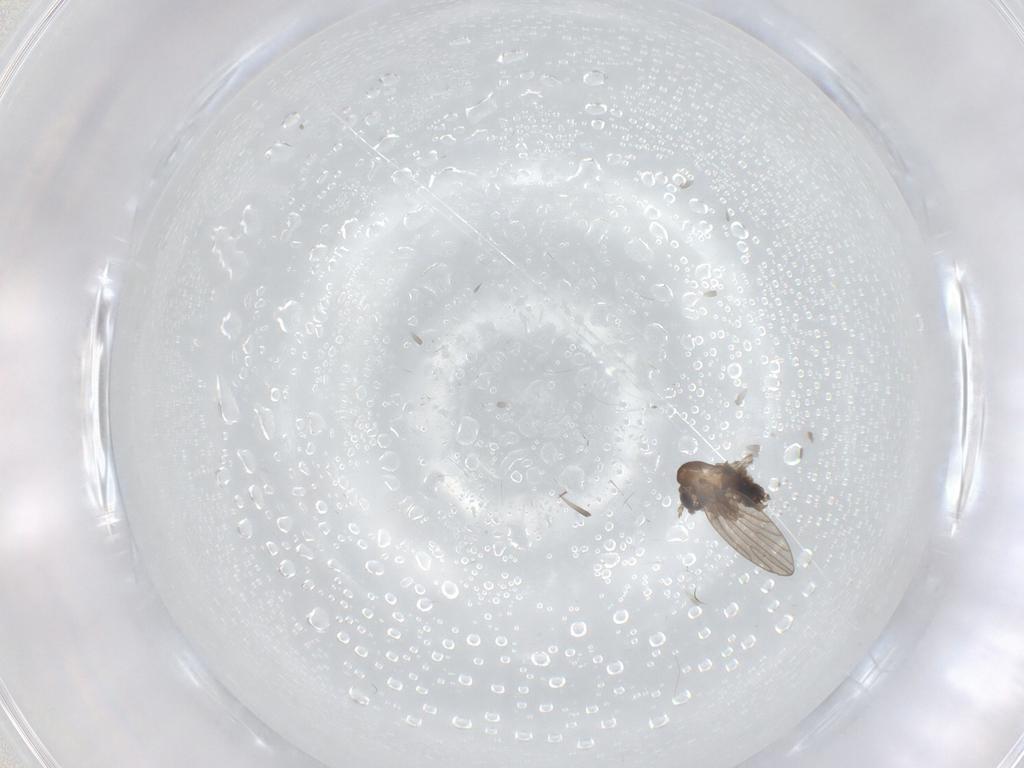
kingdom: Animalia
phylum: Arthropoda
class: Insecta
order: Diptera
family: Psychodidae
